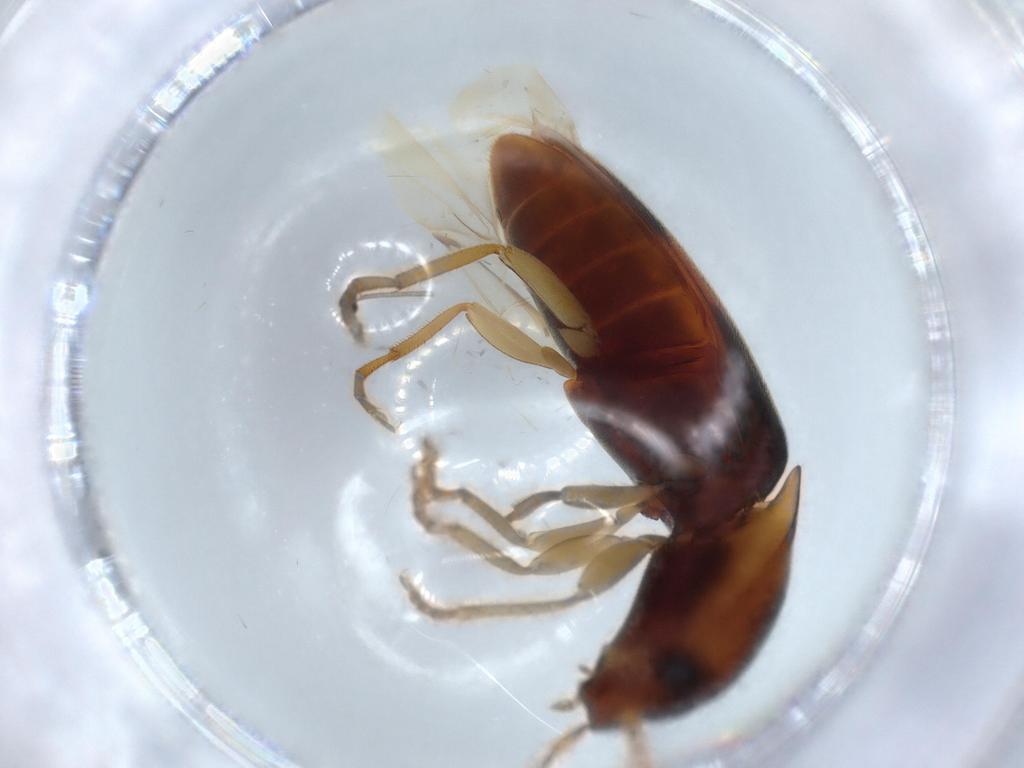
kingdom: Animalia
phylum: Arthropoda
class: Insecta
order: Coleoptera
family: Elateridae
